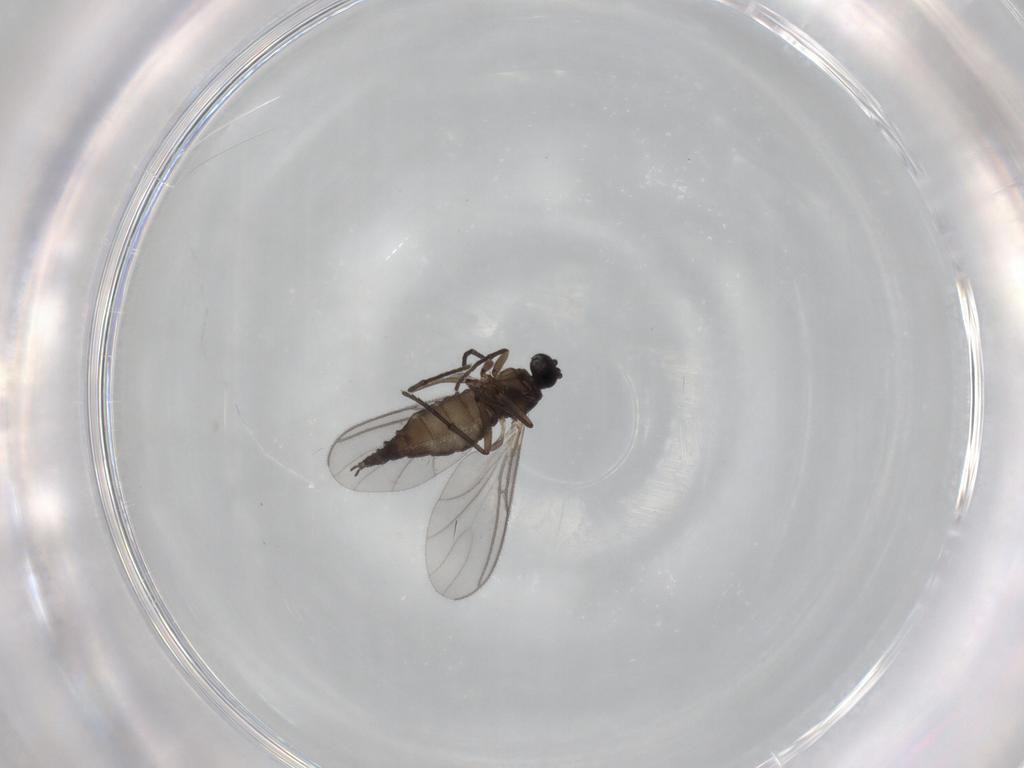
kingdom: Animalia
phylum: Arthropoda
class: Insecta
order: Diptera
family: Sciaridae
